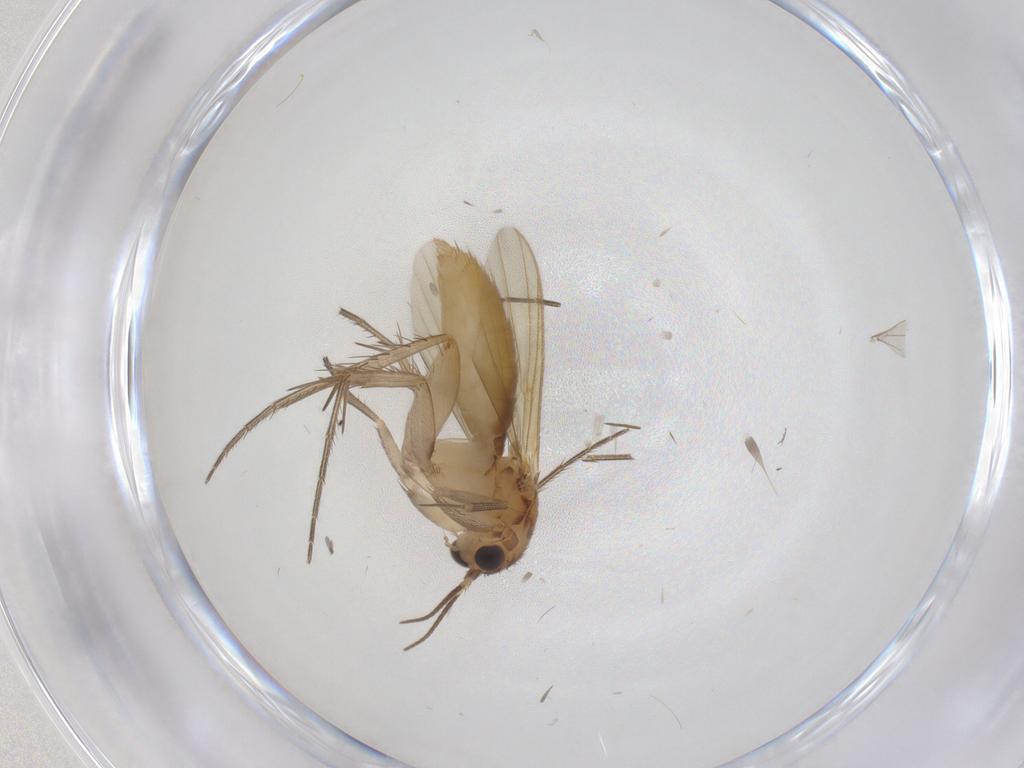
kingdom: Animalia
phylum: Arthropoda
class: Insecta
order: Diptera
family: Mycetophilidae
